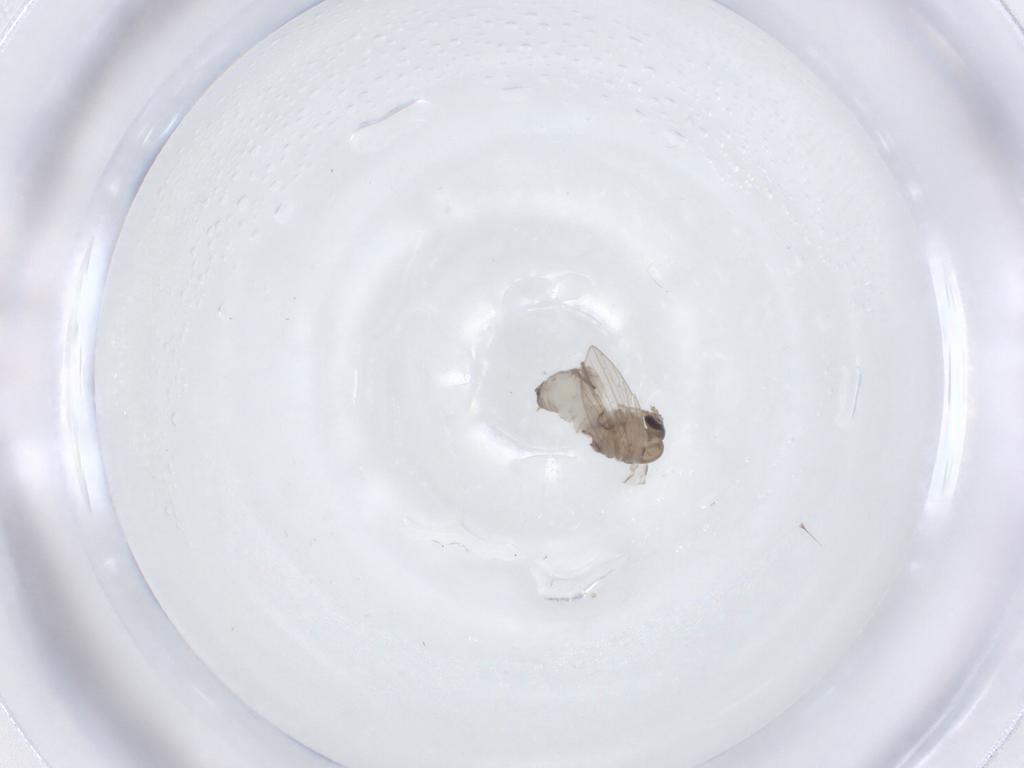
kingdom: Animalia
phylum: Arthropoda
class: Insecta
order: Diptera
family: Psychodidae
